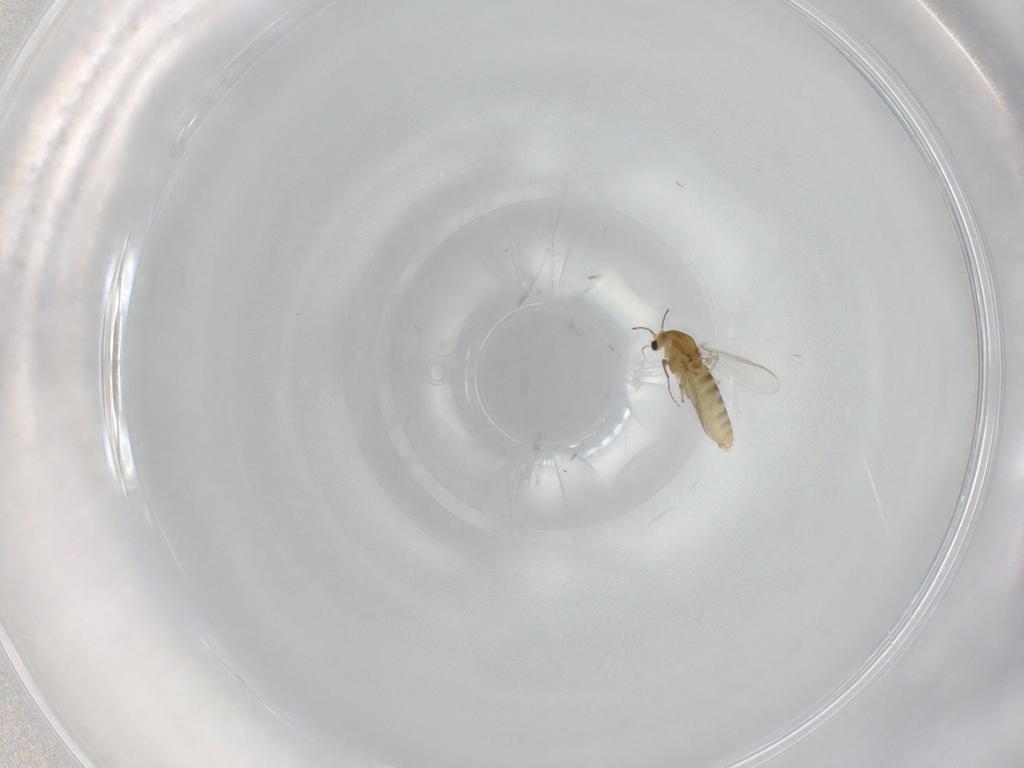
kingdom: Animalia
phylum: Arthropoda
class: Insecta
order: Diptera
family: Chironomidae
